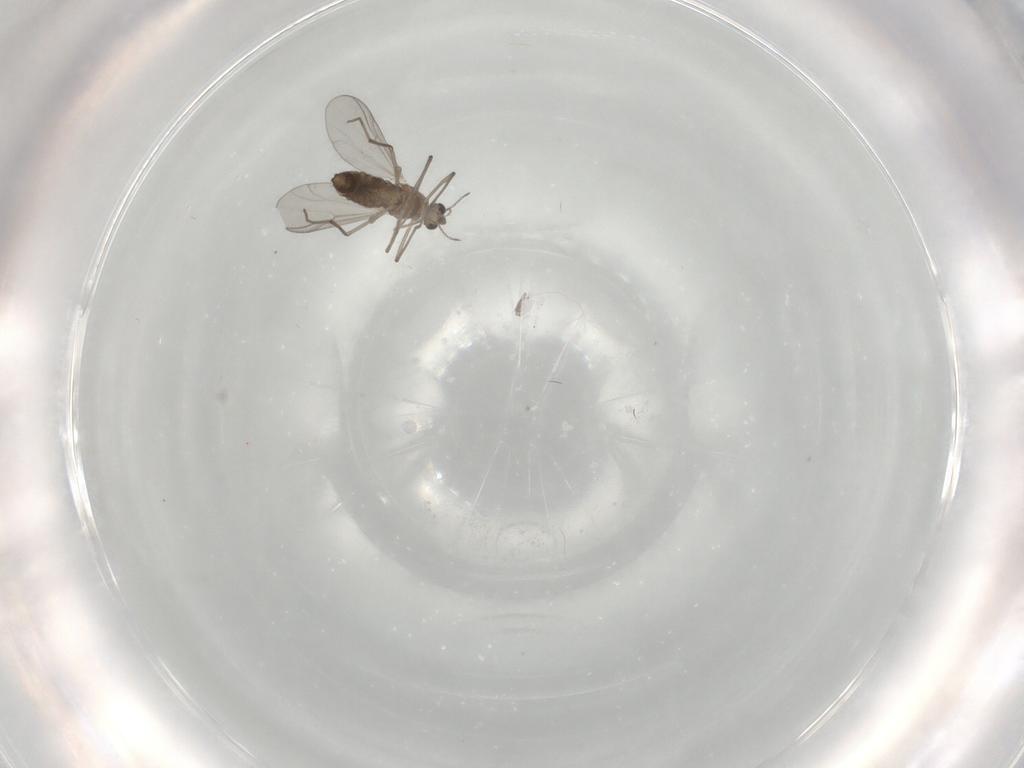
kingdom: Animalia
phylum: Arthropoda
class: Insecta
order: Diptera
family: Chironomidae
